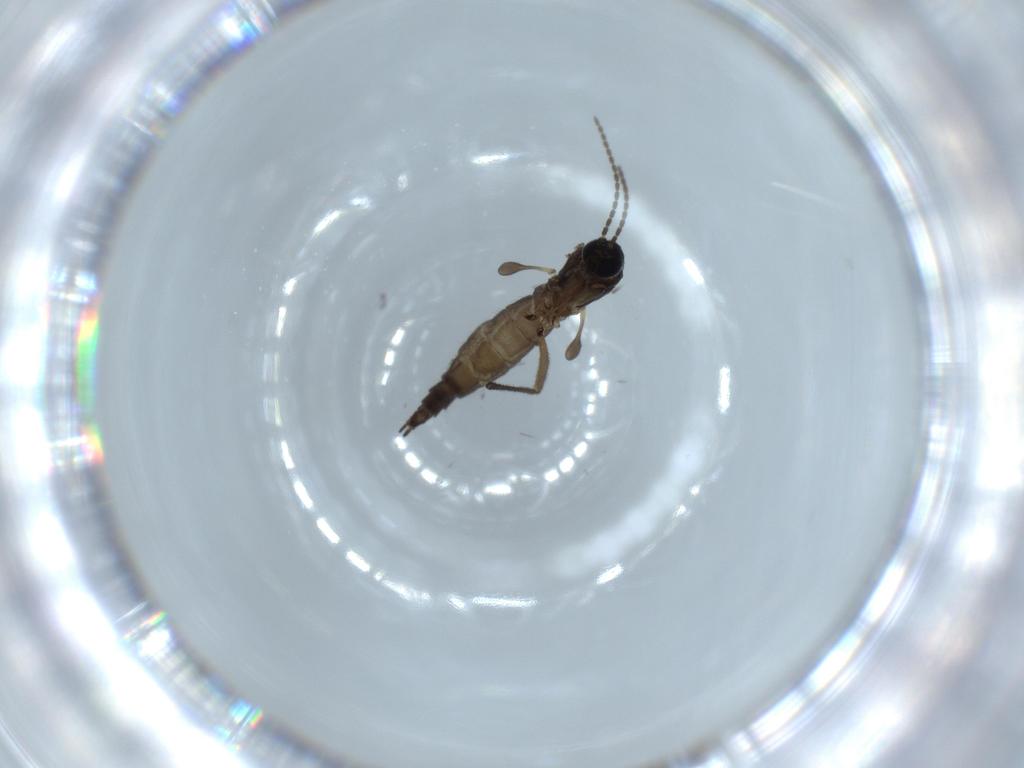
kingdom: Animalia
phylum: Arthropoda
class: Insecta
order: Diptera
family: Sciaridae
